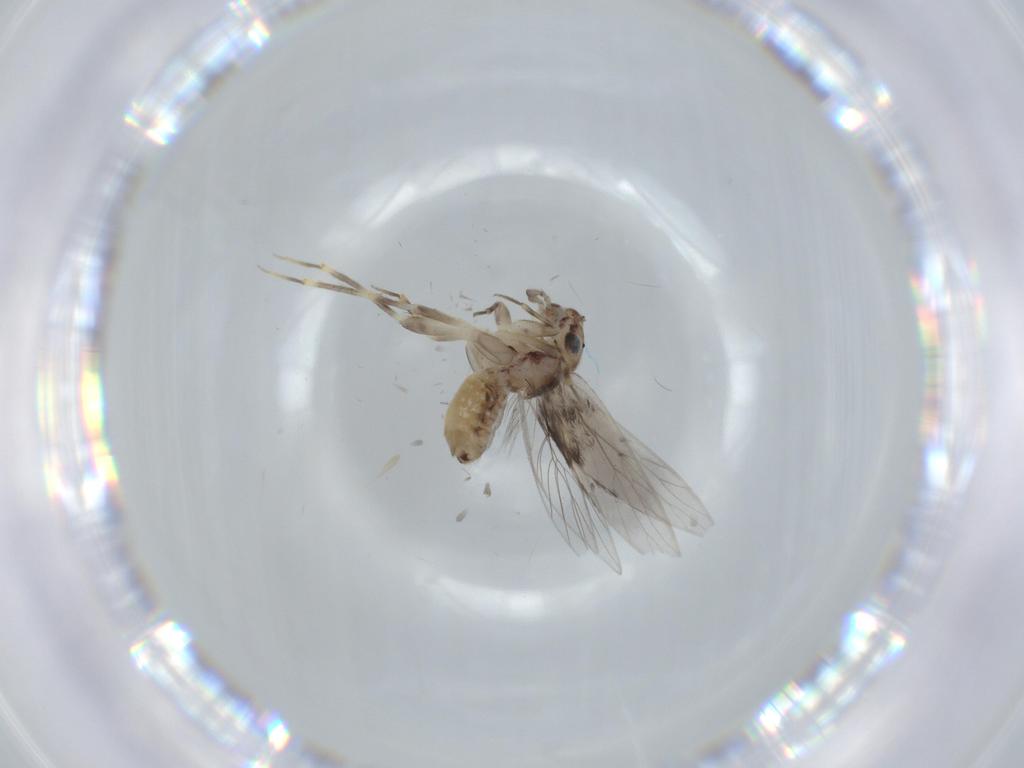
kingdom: Animalia
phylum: Arthropoda
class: Insecta
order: Psocodea
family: Lepidopsocidae
